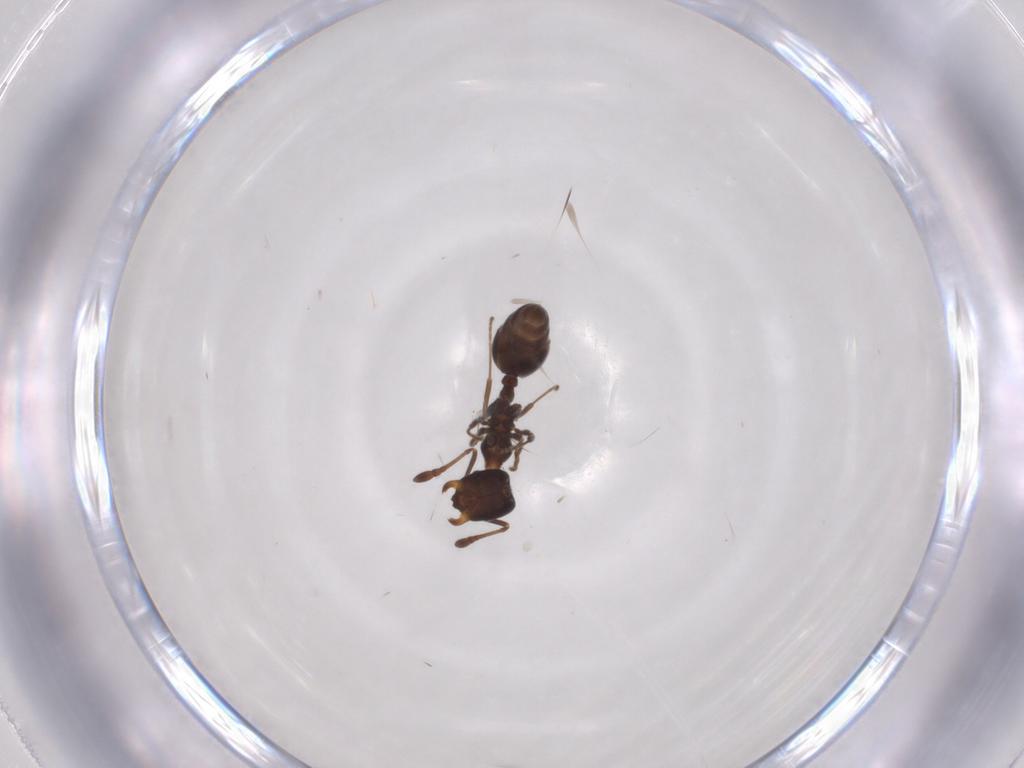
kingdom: Animalia
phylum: Arthropoda
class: Insecta
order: Hymenoptera
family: Formicidae
